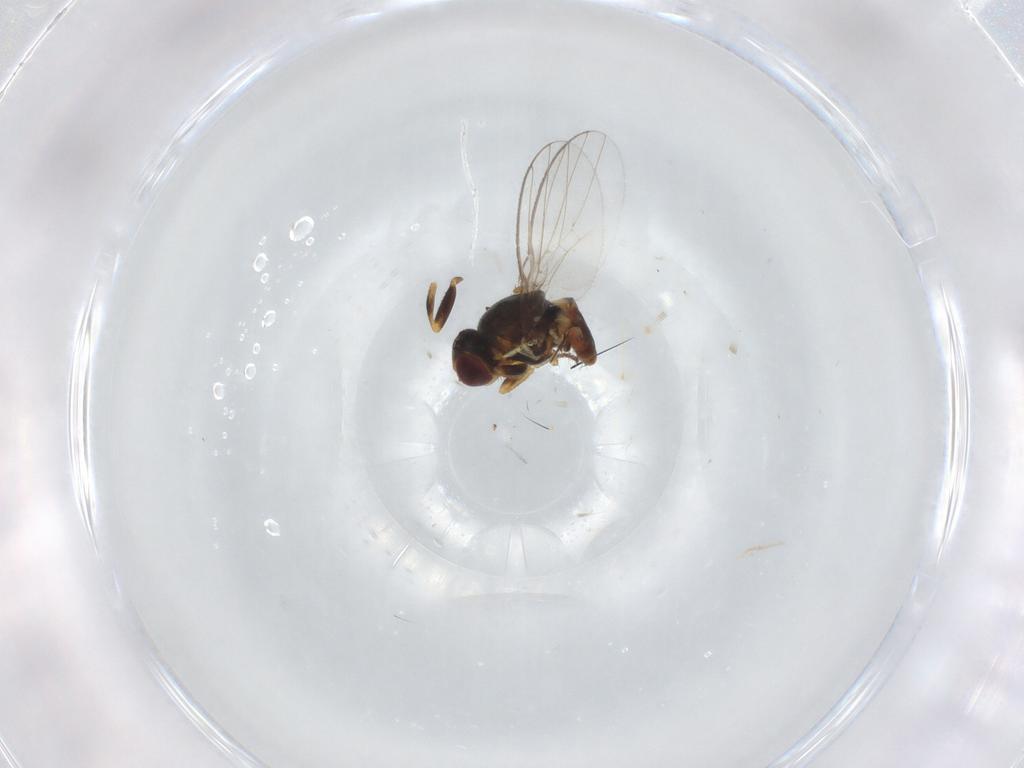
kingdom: Animalia
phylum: Arthropoda
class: Insecta
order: Diptera
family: Chloropidae
